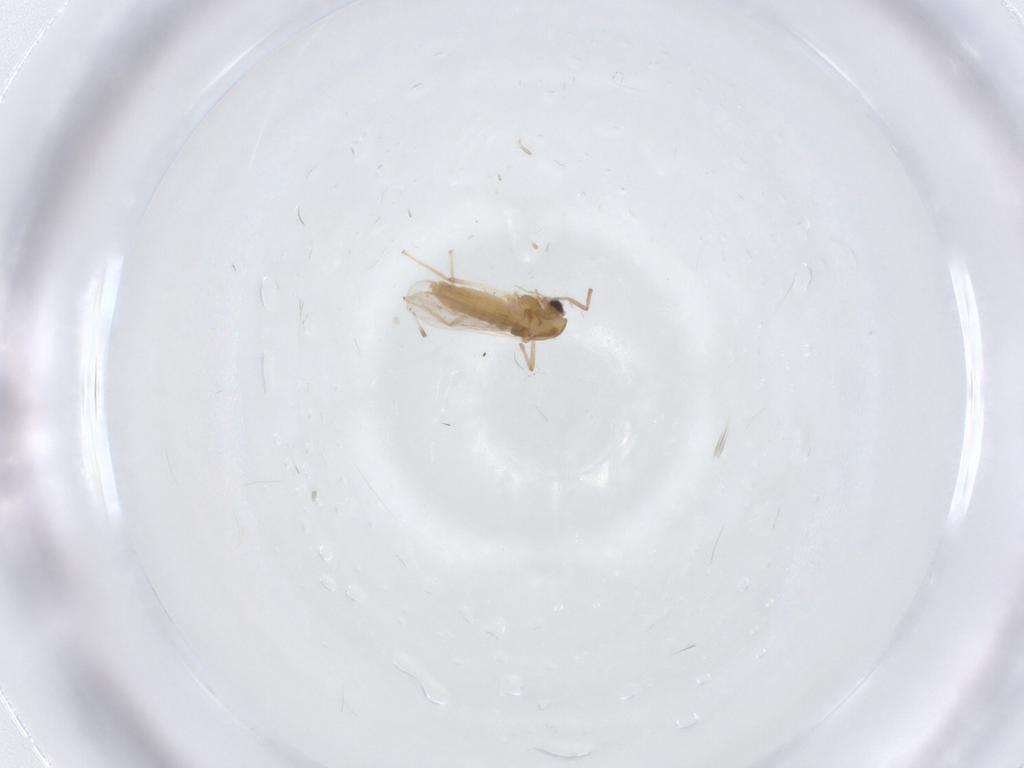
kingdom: Animalia
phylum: Arthropoda
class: Insecta
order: Diptera
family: Chironomidae
